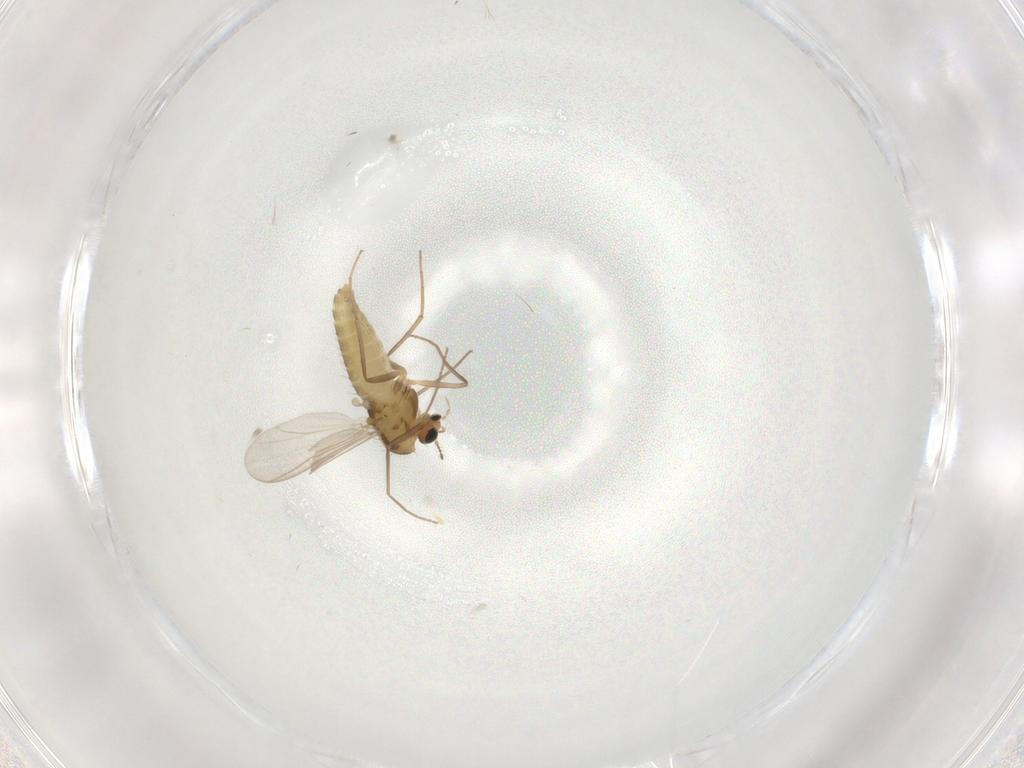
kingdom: Animalia
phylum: Arthropoda
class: Insecta
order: Diptera
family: Chironomidae
